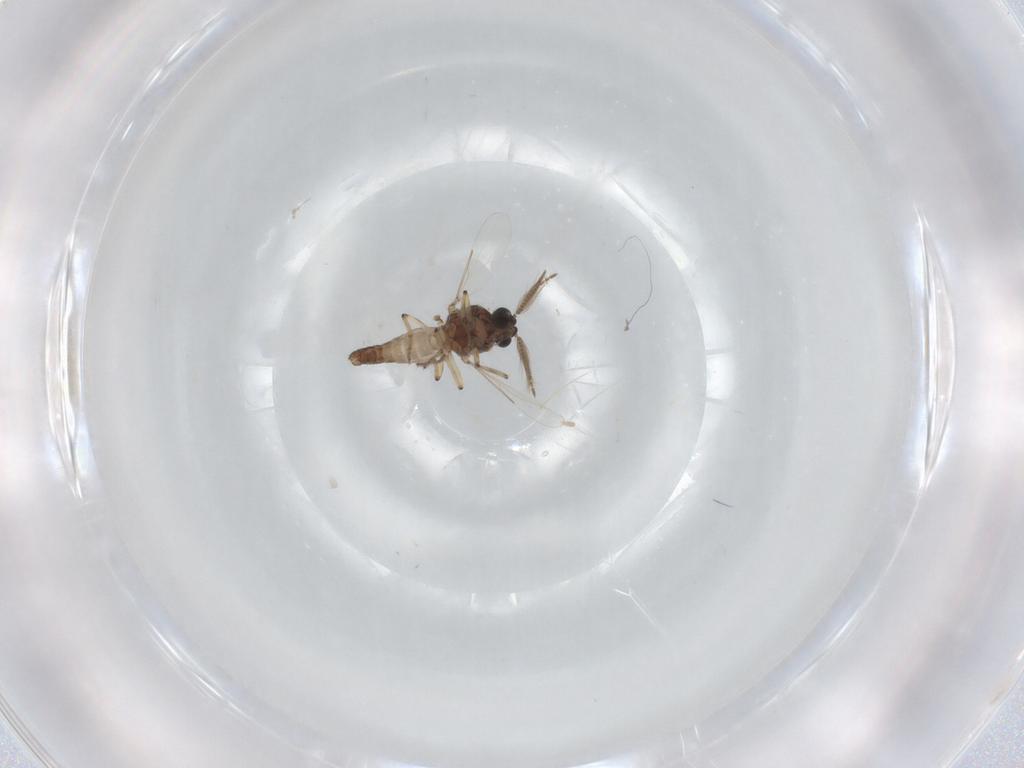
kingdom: Animalia
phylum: Arthropoda
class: Insecta
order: Diptera
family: Ceratopogonidae
